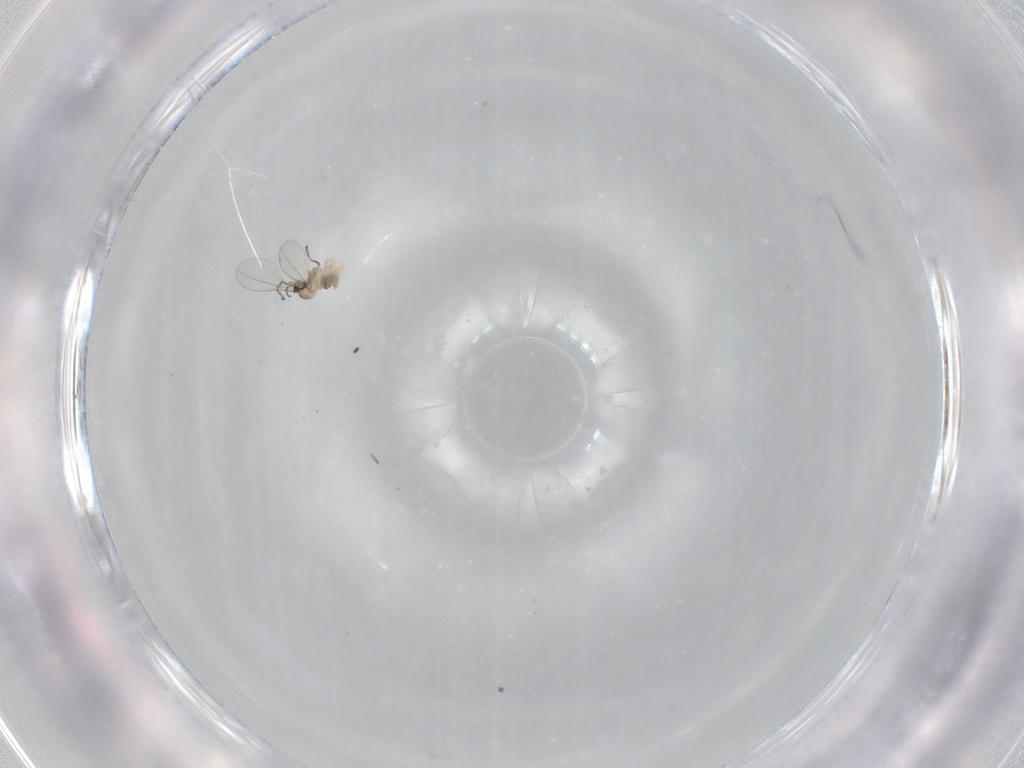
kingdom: Animalia
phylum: Arthropoda
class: Insecta
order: Diptera
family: Cecidomyiidae
